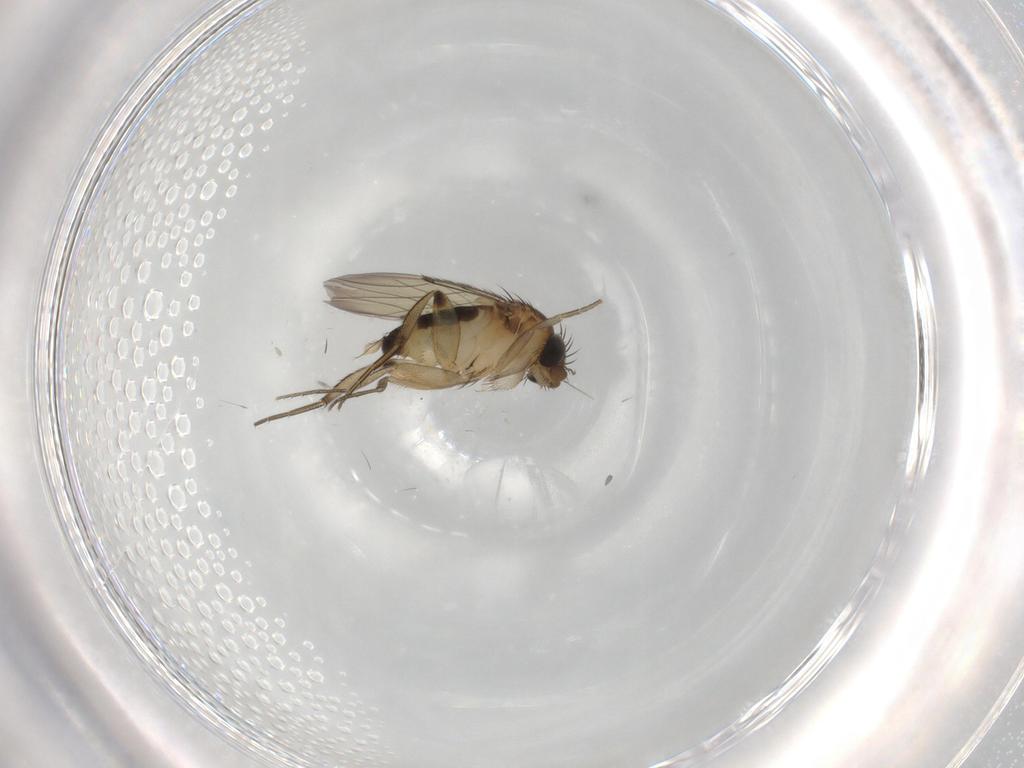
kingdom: Animalia
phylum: Arthropoda
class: Insecta
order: Diptera
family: Phoridae
